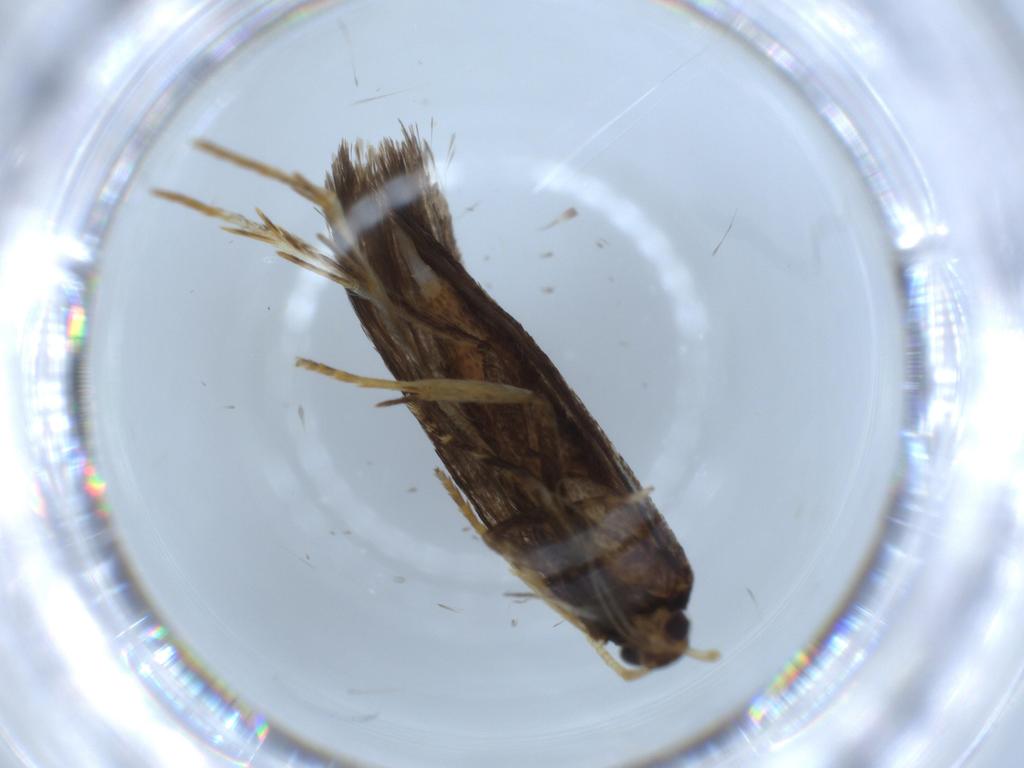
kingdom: Animalia
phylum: Arthropoda
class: Insecta
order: Lepidoptera
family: Lecithoceridae
